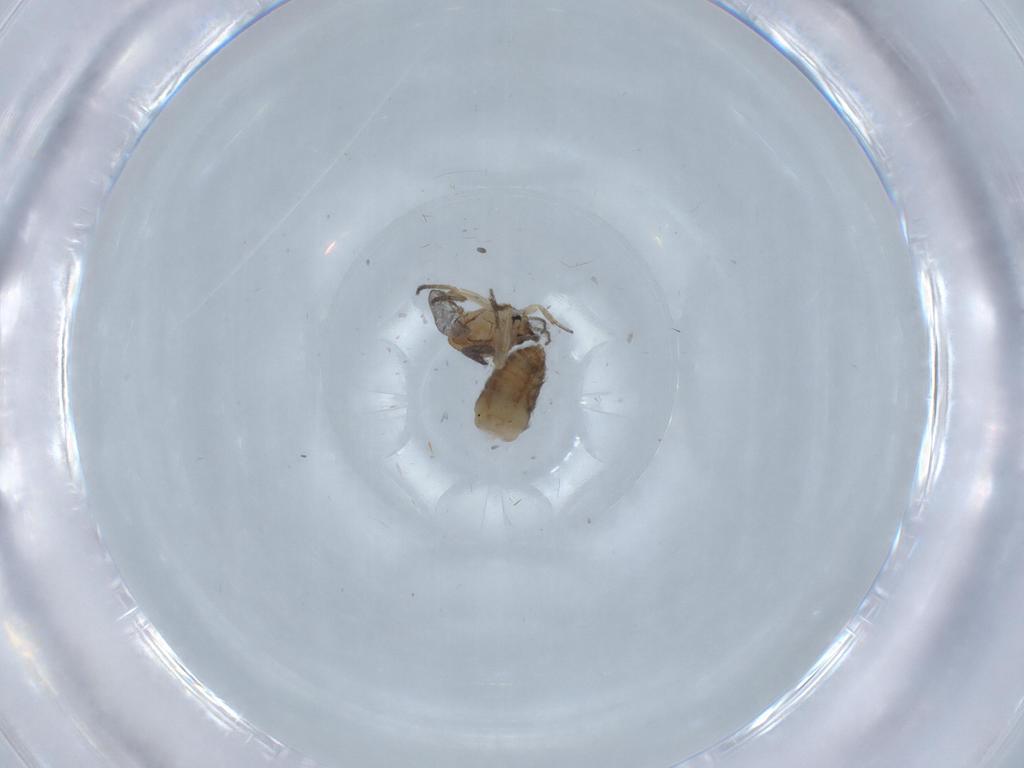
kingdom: Animalia
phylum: Arthropoda
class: Insecta
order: Diptera
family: Ceratopogonidae
